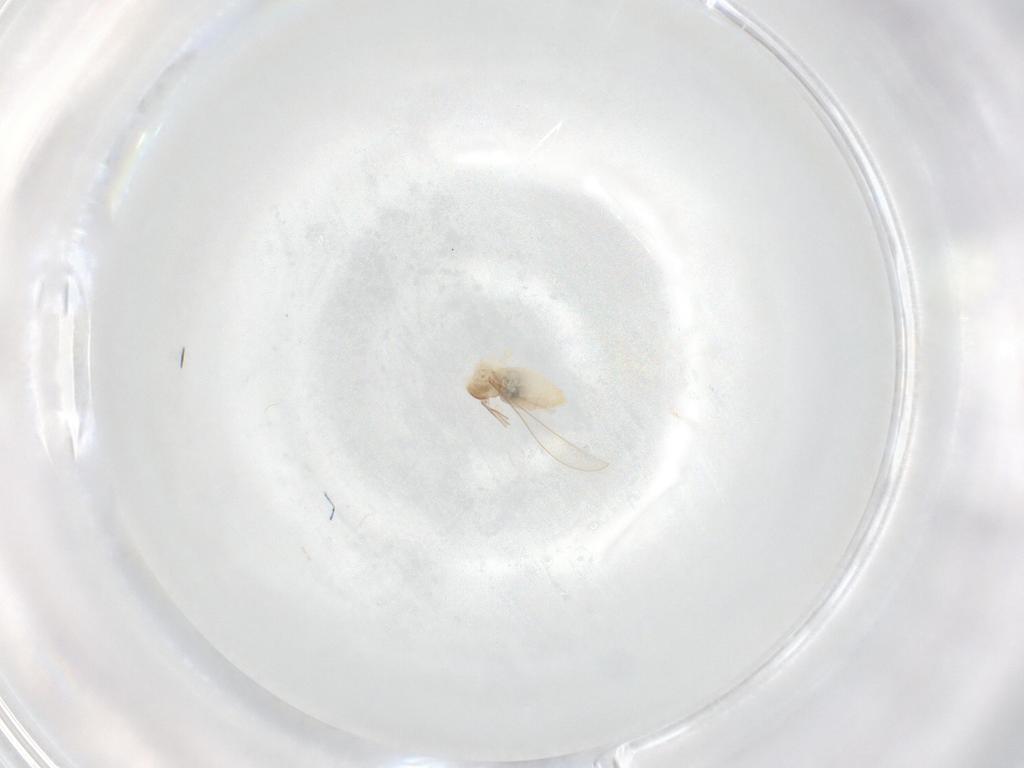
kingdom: Animalia
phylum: Arthropoda
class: Insecta
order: Diptera
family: Cecidomyiidae
